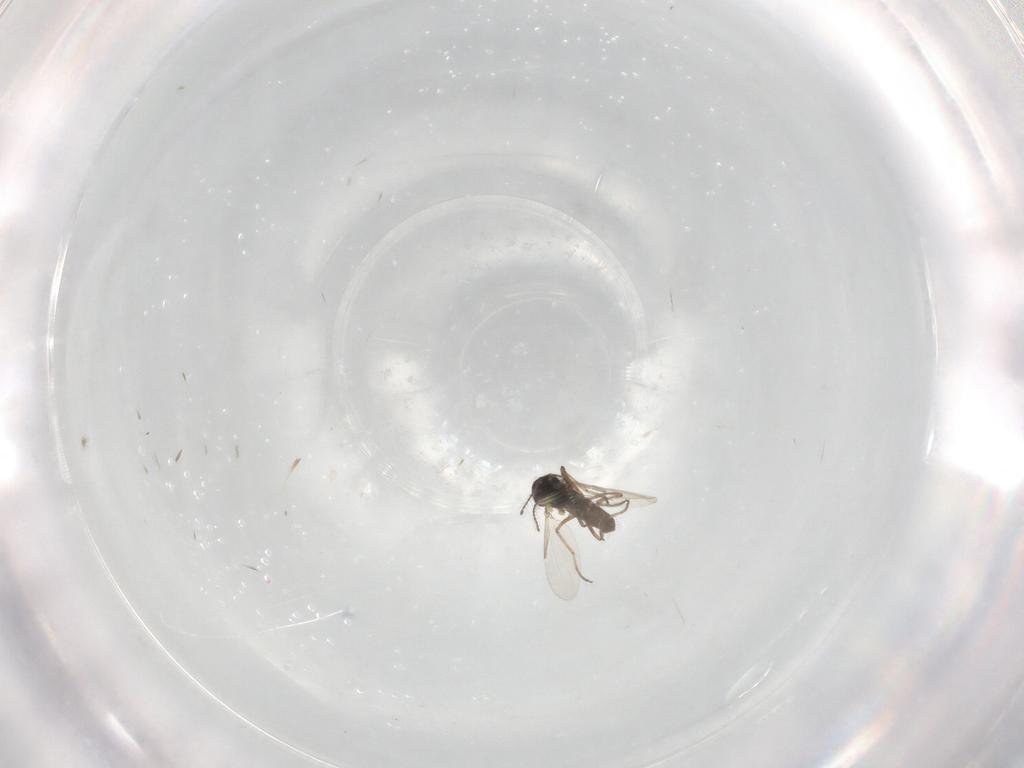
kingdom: Animalia
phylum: Arthropoda
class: Insecta
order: Diptera
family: Ceratopogonidae
